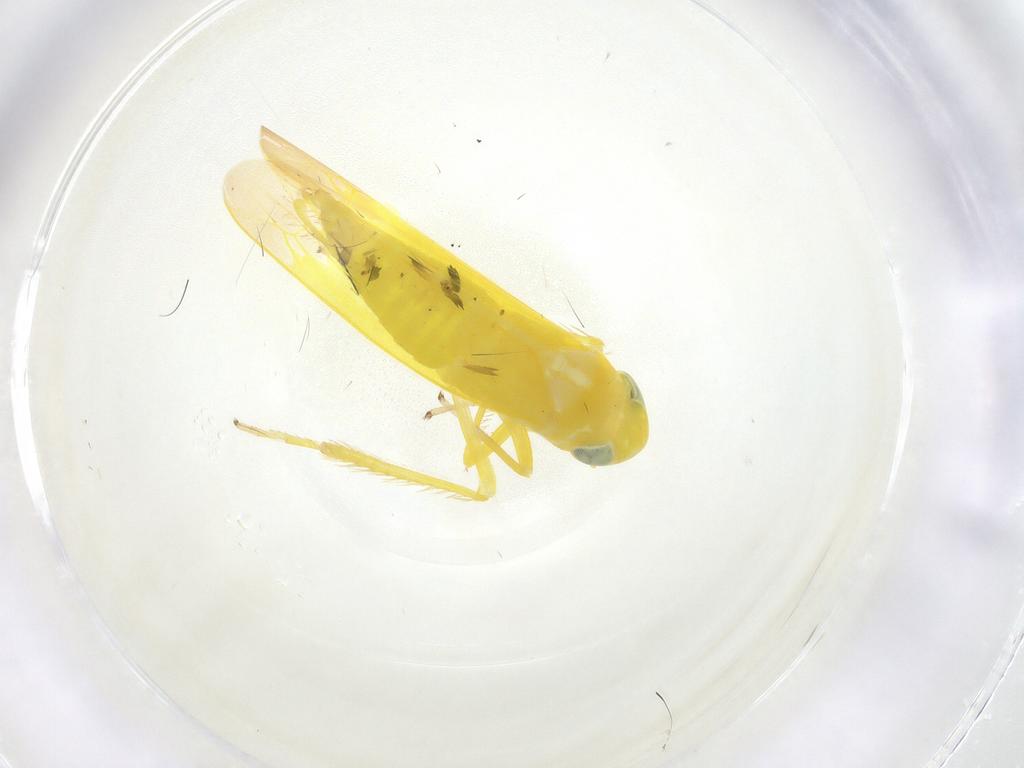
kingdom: Animalia
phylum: Arthropoda
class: Insecta
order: Hemiptera
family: Cicadellidae
